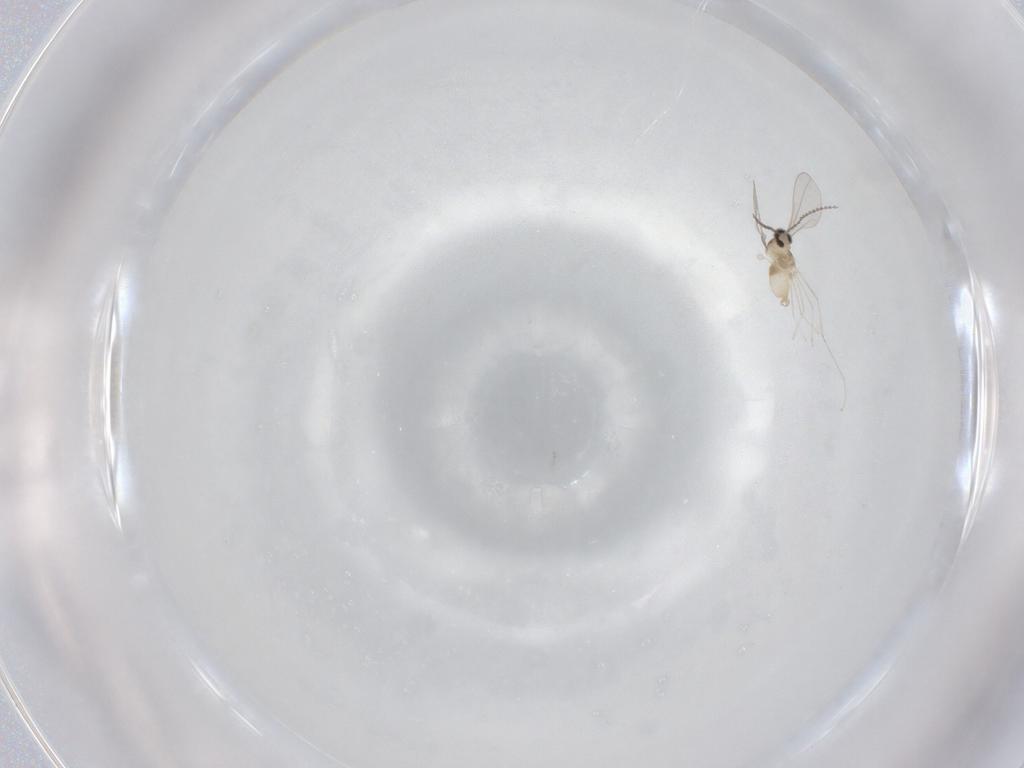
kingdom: Animalia
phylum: Arthropoda
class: Insecta
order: Diptera
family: Cecidomyiidae
